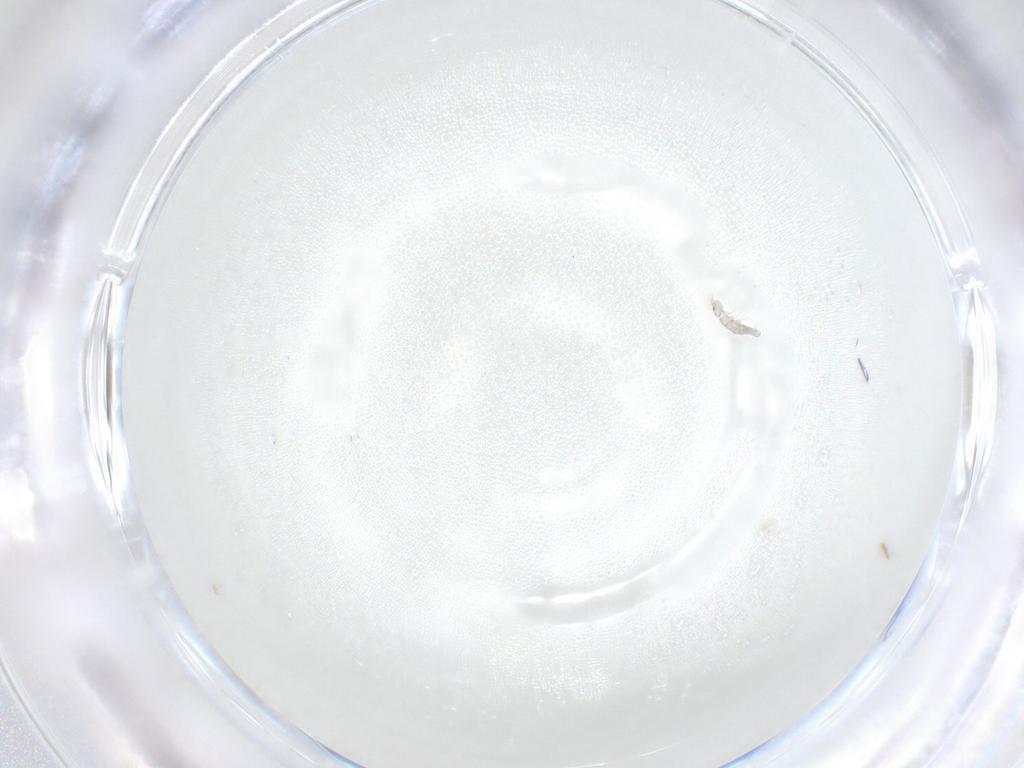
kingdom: Animalia
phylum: Arthropoda
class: Collembola
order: Entomobryomorpha
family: Isotomidae
